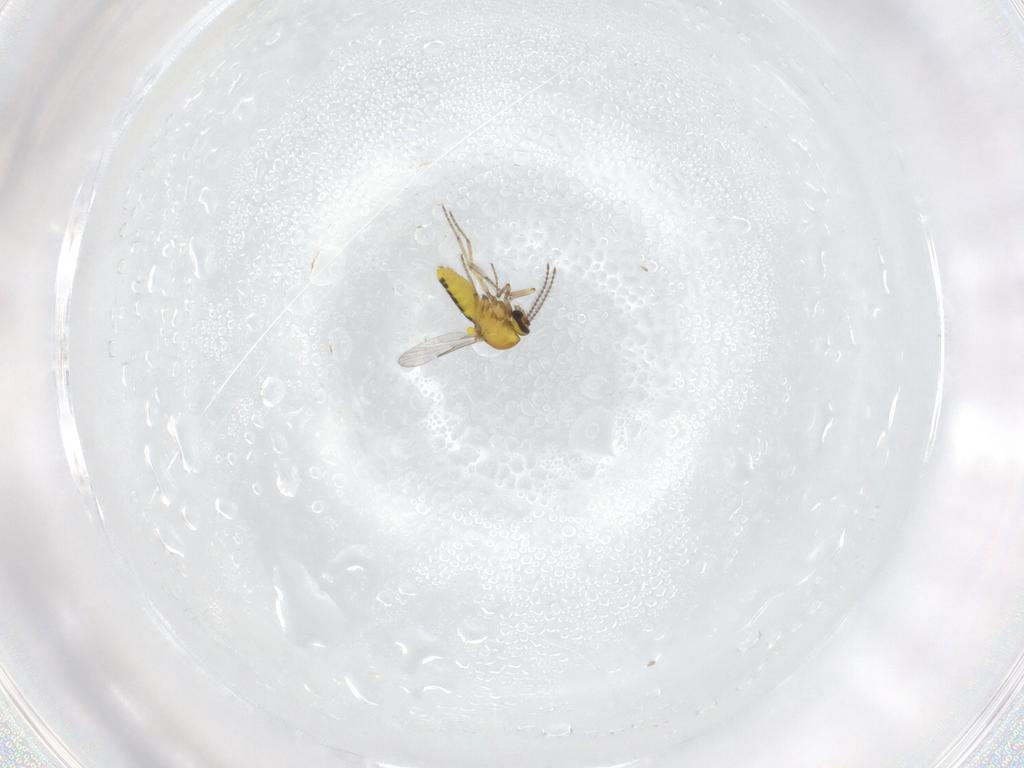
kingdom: Animalia
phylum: Arthropoda
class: Insecta
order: Diptera
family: Ceratopogonidae
